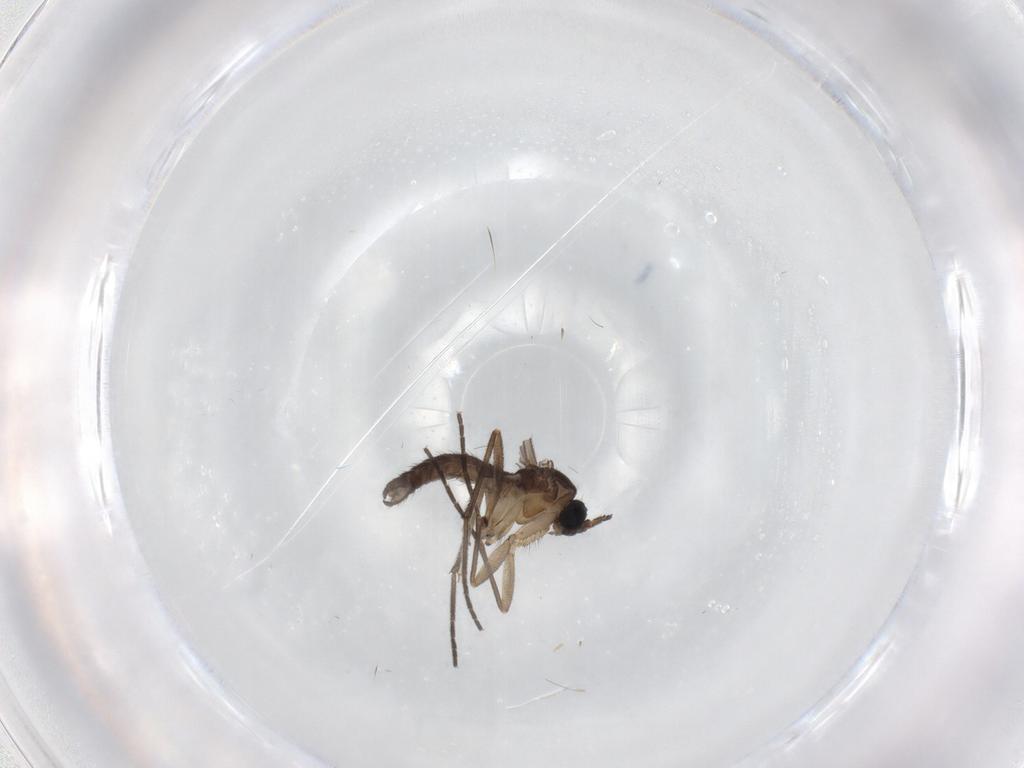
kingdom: Animalia
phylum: Arthropoda
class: Insecta
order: Diptera
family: Sciaridae
